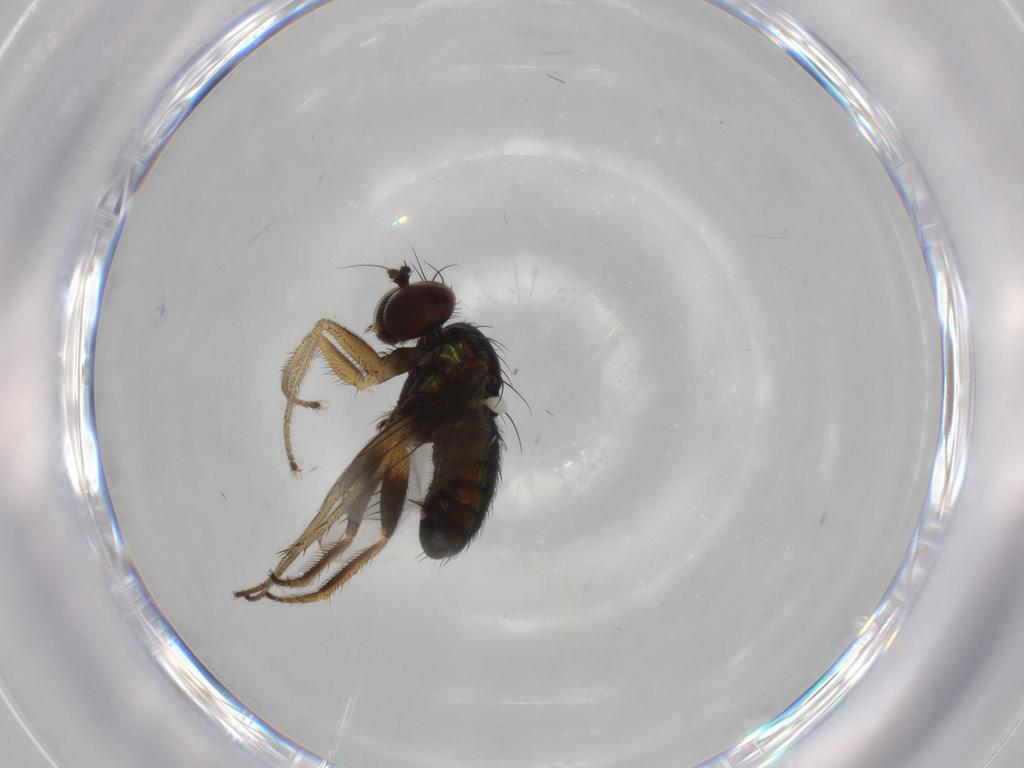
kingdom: Animalia
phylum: Arthropoda
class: Insecta
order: Diptera
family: Dolichopodidae
